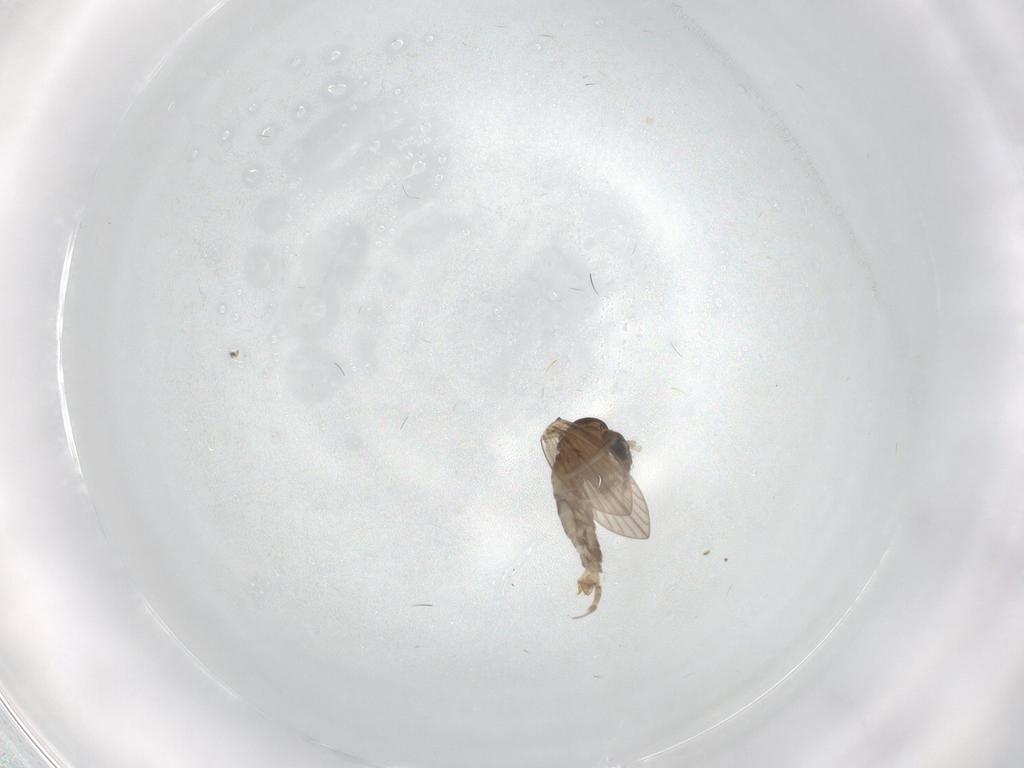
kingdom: Animalia
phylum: Arthropoda
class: Insecta
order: Diptera
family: Psychodidae
